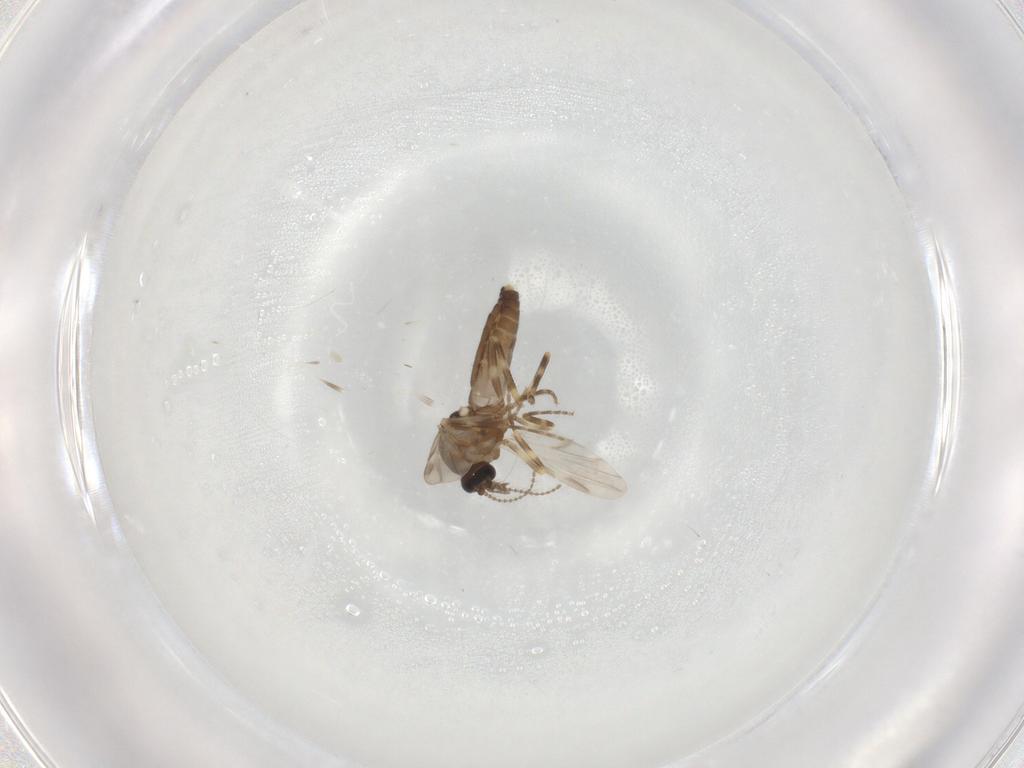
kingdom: Animalia
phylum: Arthropoda
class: Insecta
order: Diptera
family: Ceratopogonidae
